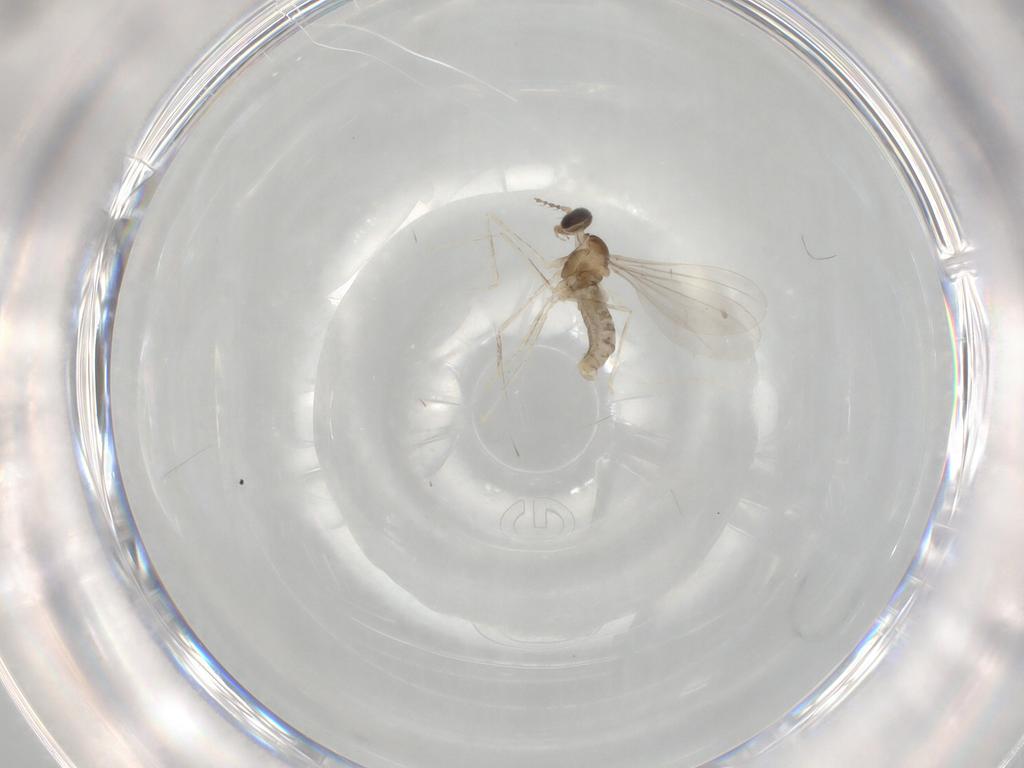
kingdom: Animalia
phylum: Arthropoda
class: Insecta
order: Diptera
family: Cecidomyiidae
